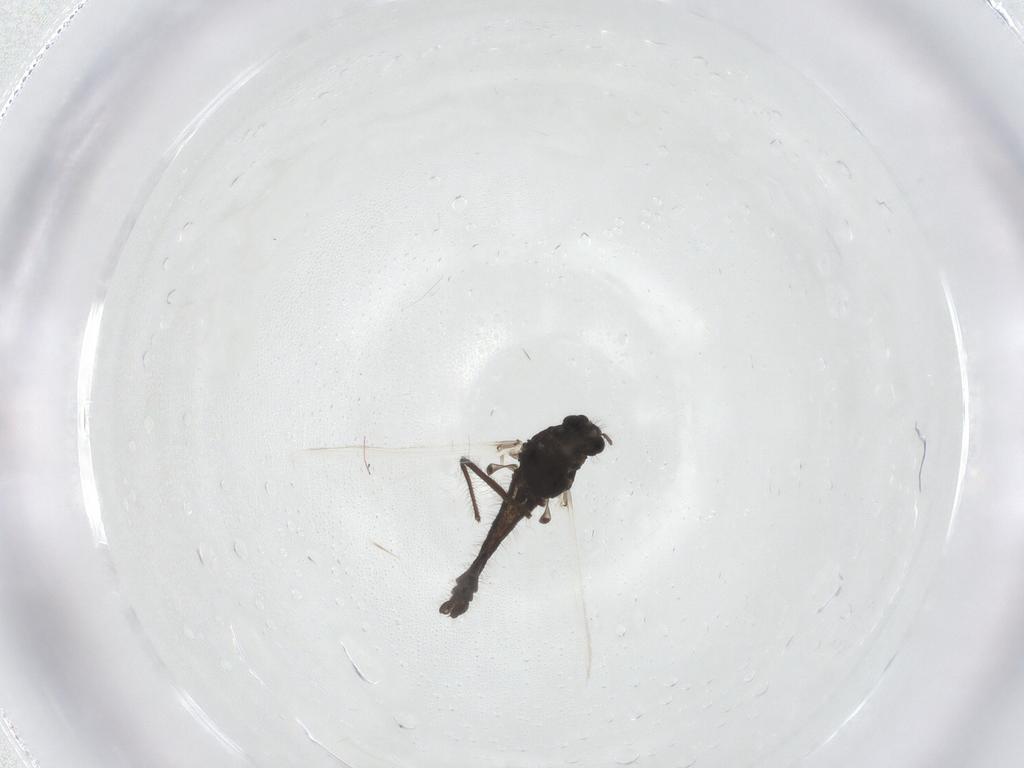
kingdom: Animalia
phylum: Arthropoda
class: Insecta
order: Diptera
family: Chironomidae
